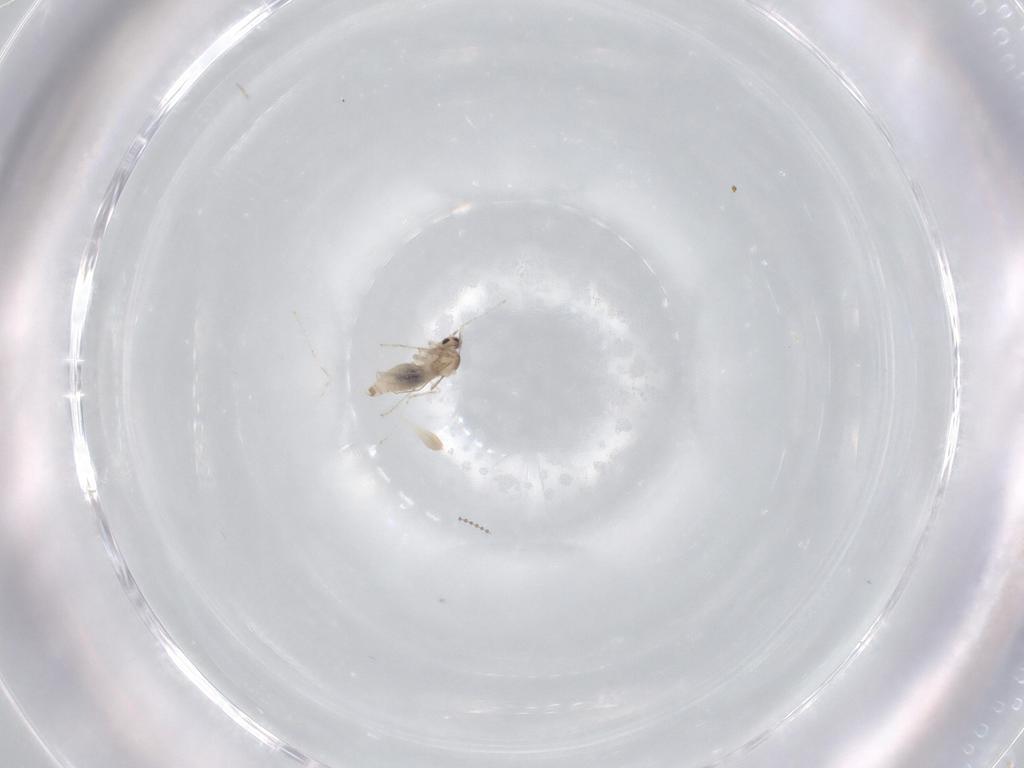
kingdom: Animalia
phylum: Arthropoda
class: Insecta
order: Diptera
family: Cecidomyiidae
